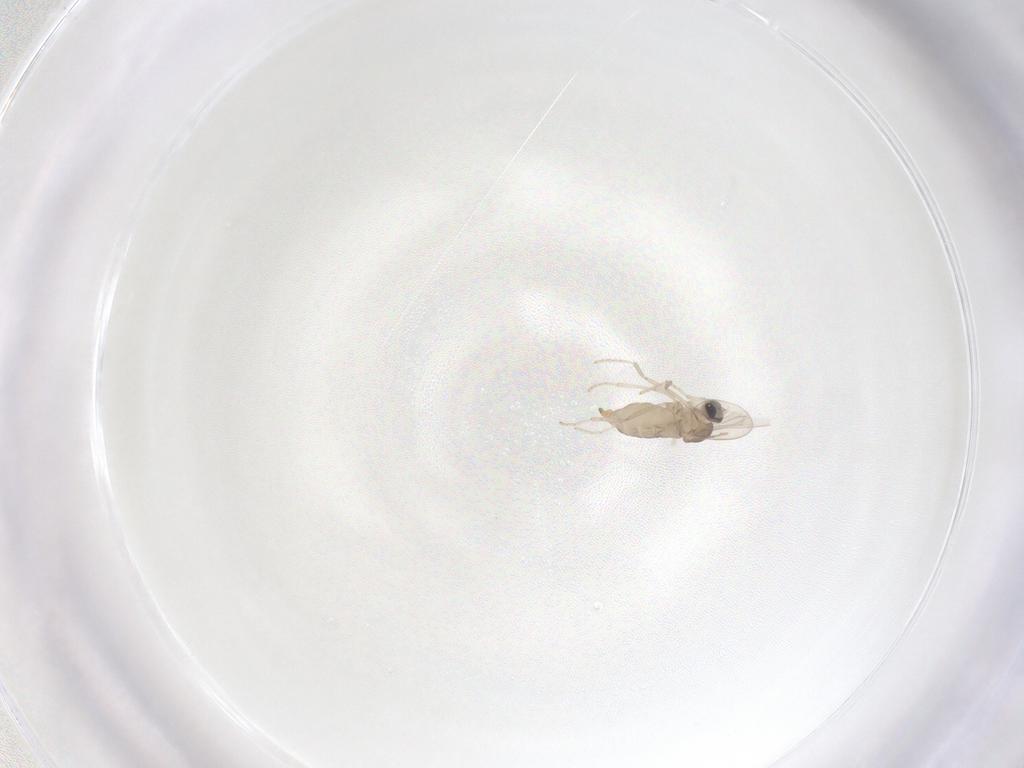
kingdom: Animalia
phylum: Arthropoda
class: Insecta
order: Diptera
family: Ceratopogonidae
